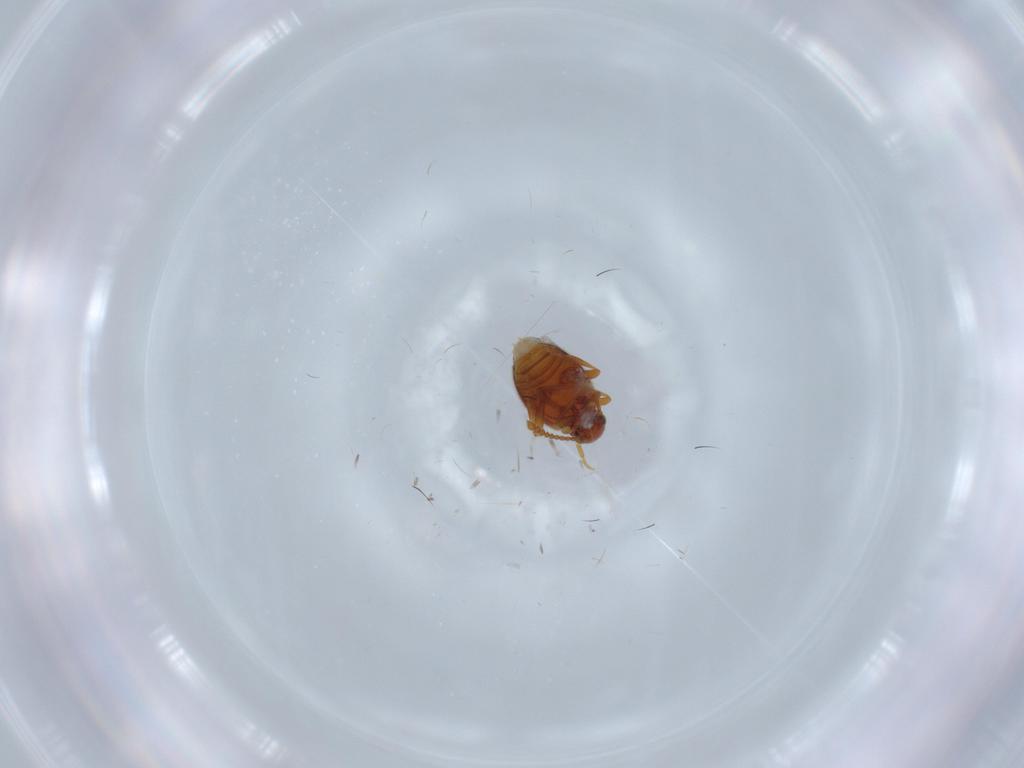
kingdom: Animalia
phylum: Arthropoda
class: Insecta
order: Coleoptera
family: Aderidae
